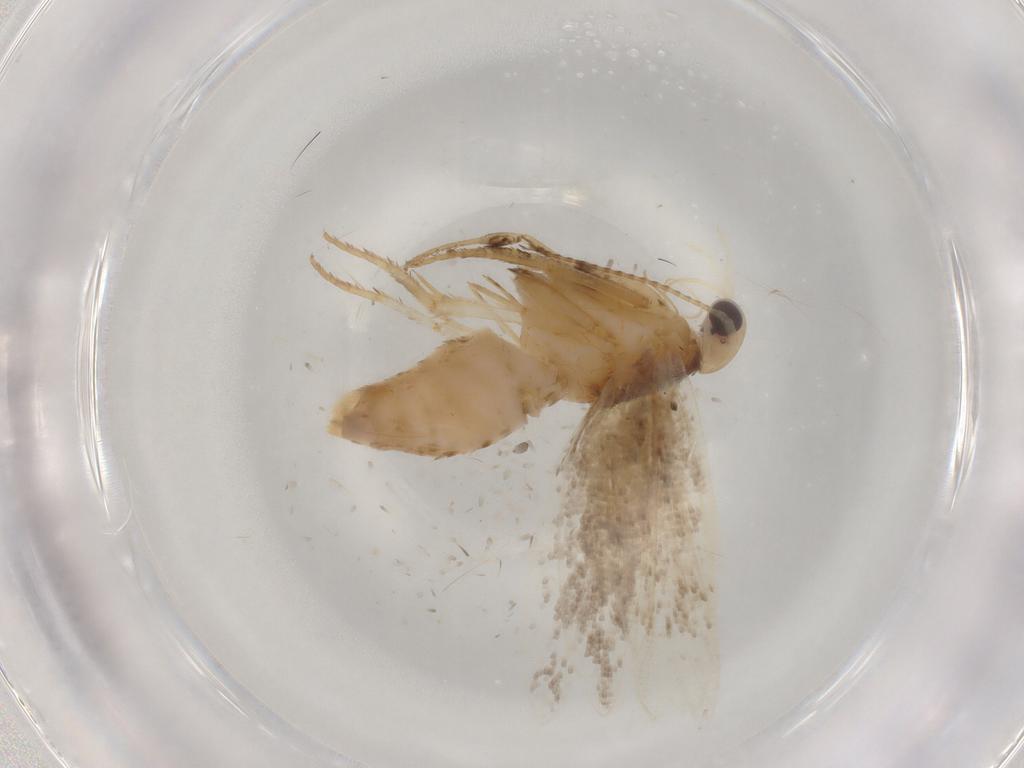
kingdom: Animalia
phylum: Arthropoda
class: Insecta
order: Lepidoptera
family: Ypsolophidae
